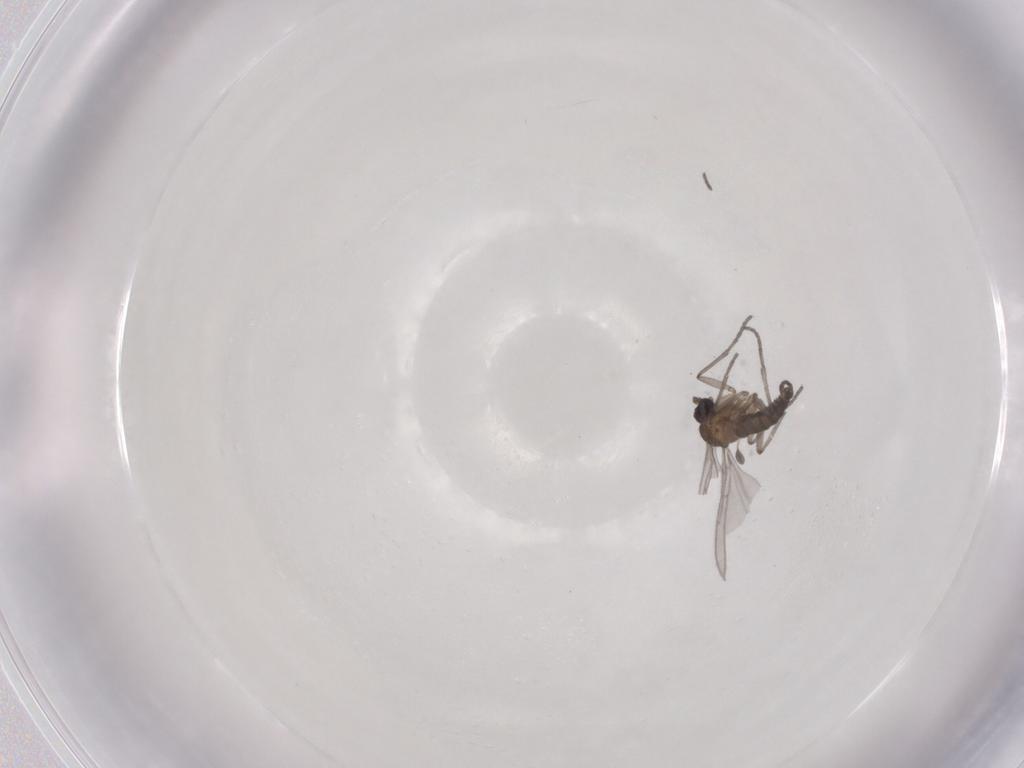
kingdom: Animalia
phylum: Arthropoda
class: Insecta
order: Diptera
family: Sciaridae
